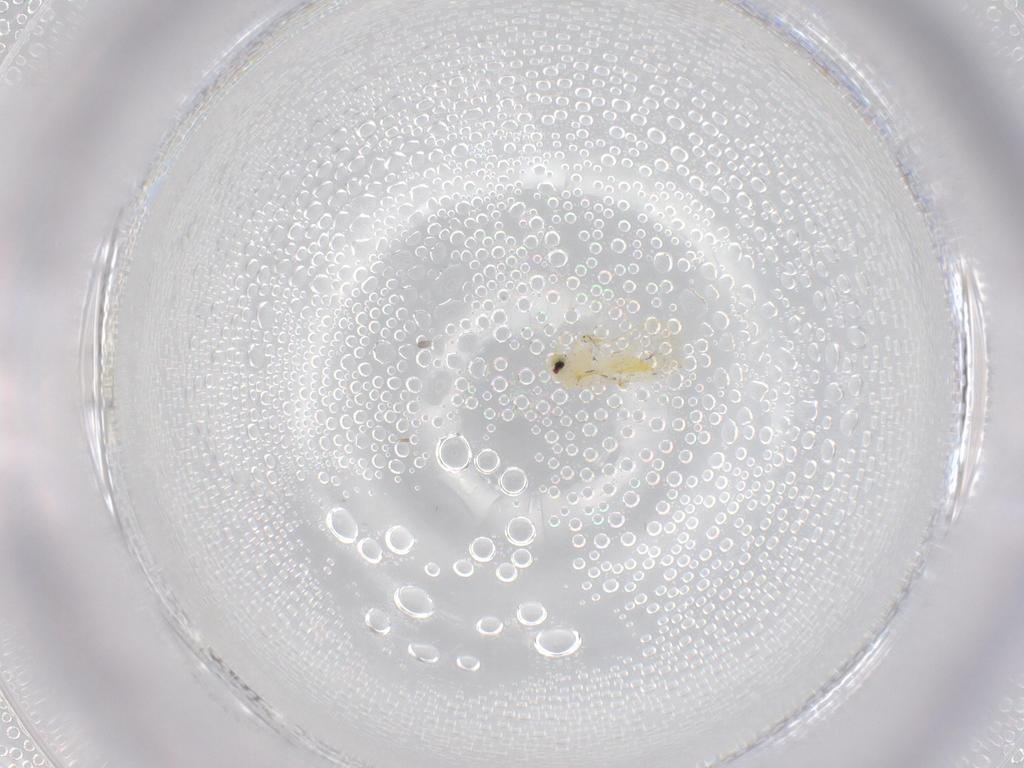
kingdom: Animalia
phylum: Arthropoda
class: Insecta
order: Hemiptera
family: Aleyrodidae
